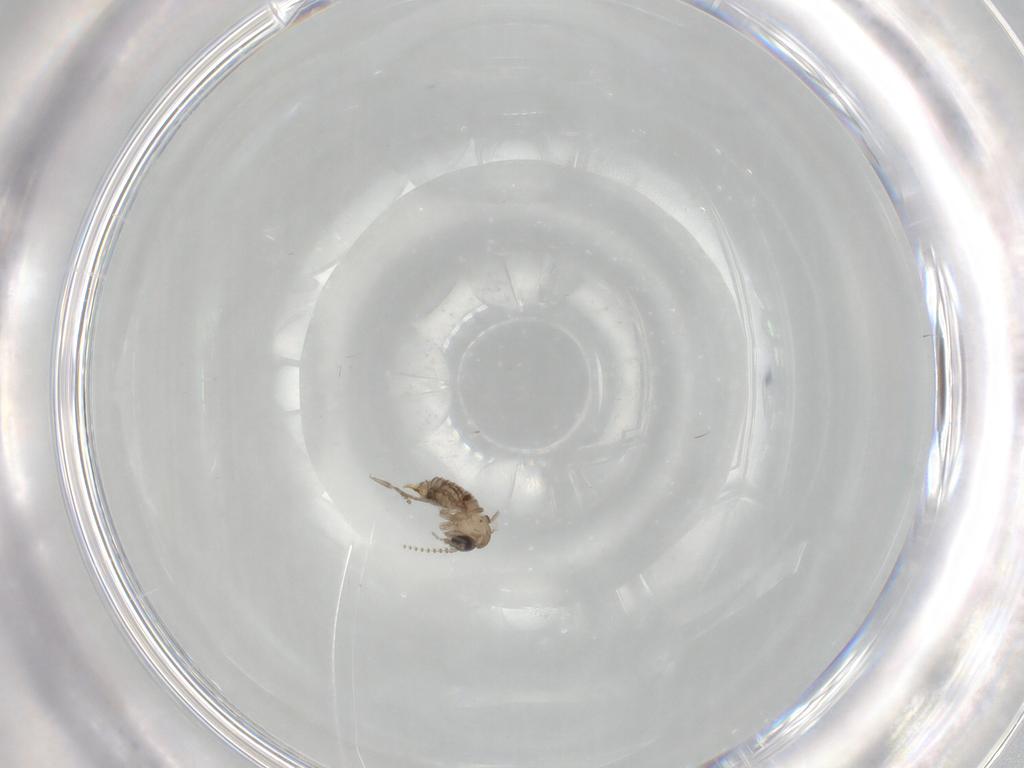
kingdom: Animalia
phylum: Arthropoda
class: Insecta
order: Diptera
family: Psychodidae
